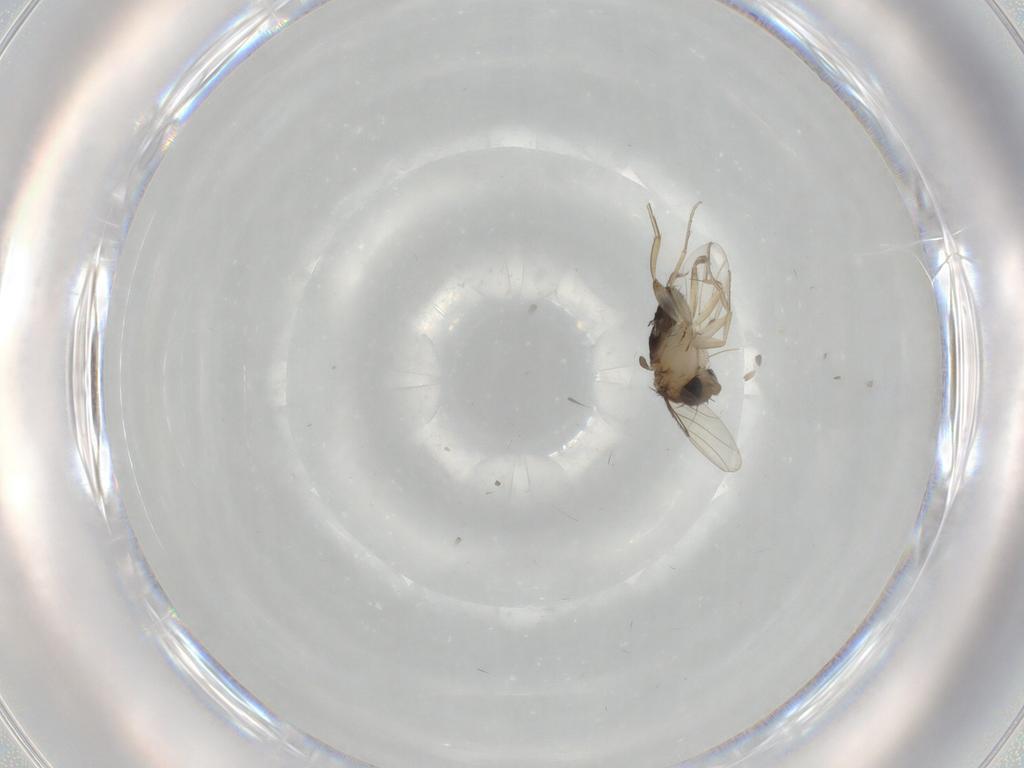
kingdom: Animalia
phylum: Arthropoda
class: Insecta
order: Diptera
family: Cecidomyiidae
